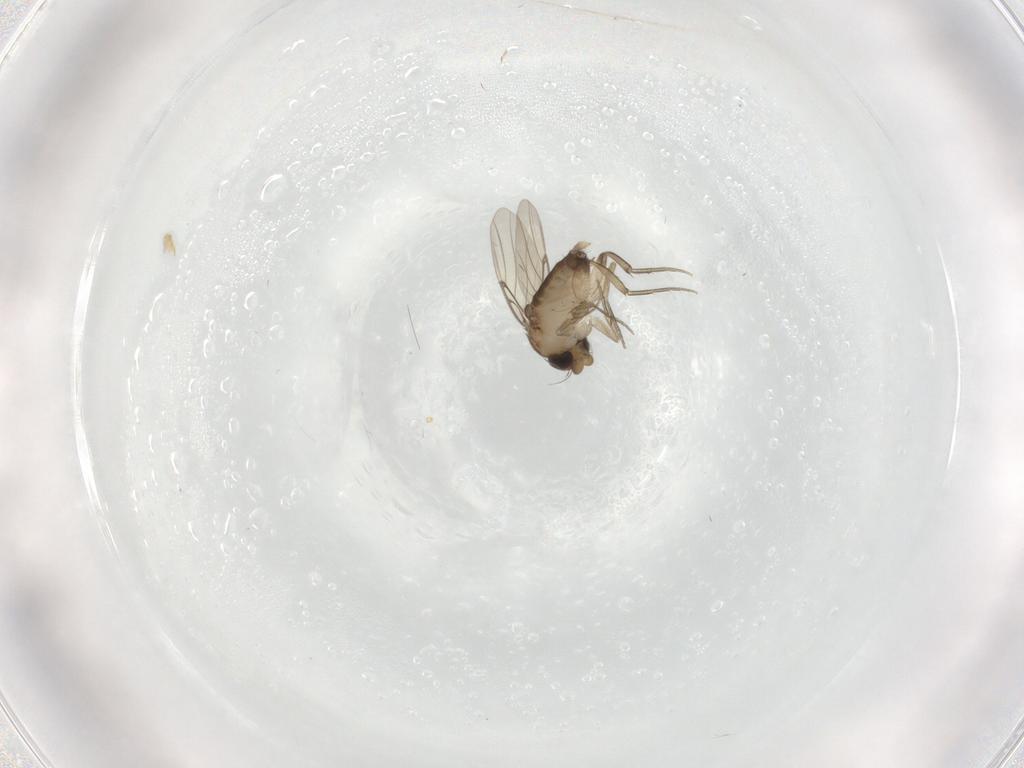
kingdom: Animalia
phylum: Arthropoda
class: Insecta
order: Diptera
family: Phoridae
